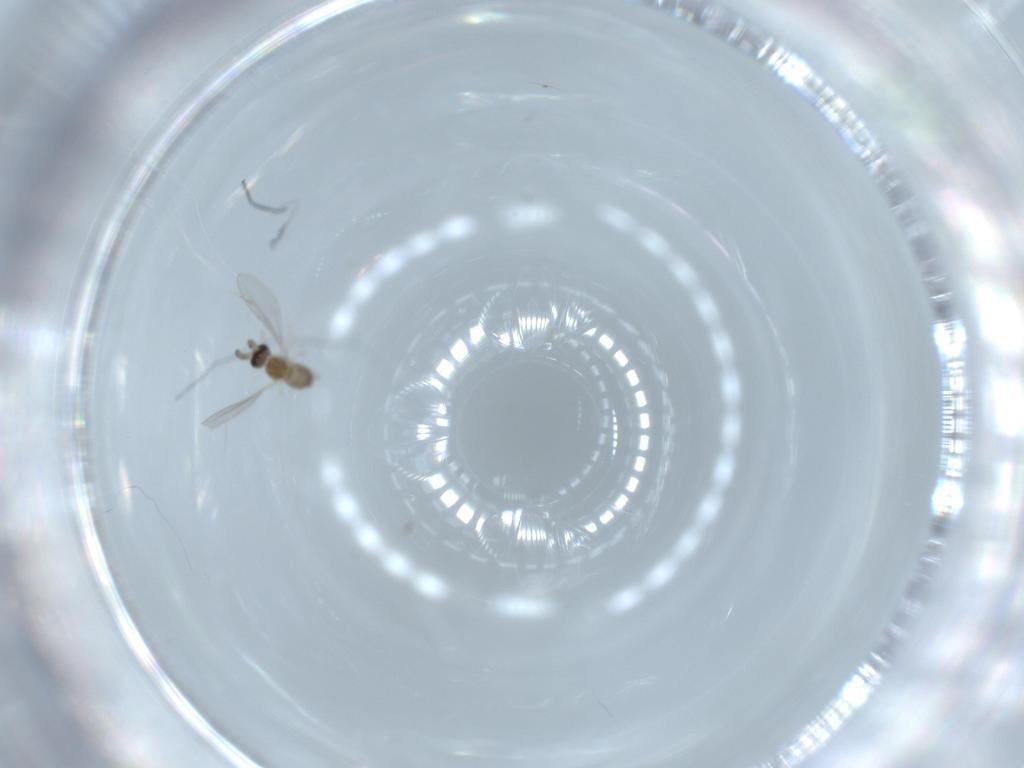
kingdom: Animalia
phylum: Arthropoda
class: Insecta
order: Diptera
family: Cecidomyiidae
